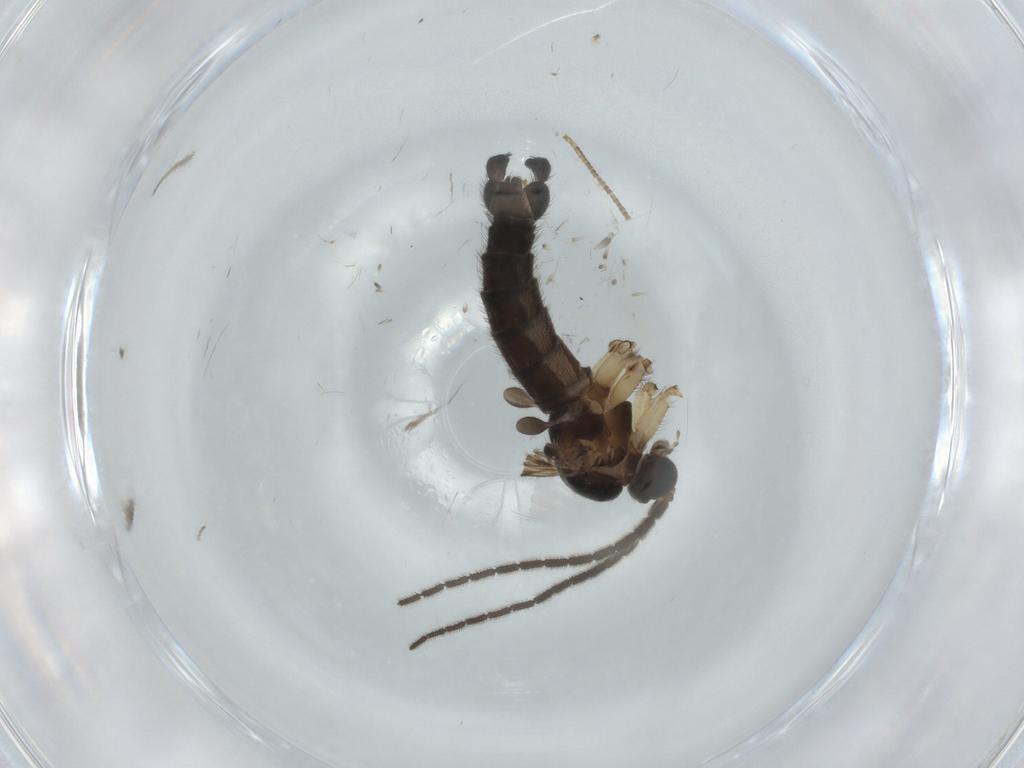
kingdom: Animalia
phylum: Arthropoda
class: Insecta
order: Diptera
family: Sciaridae
